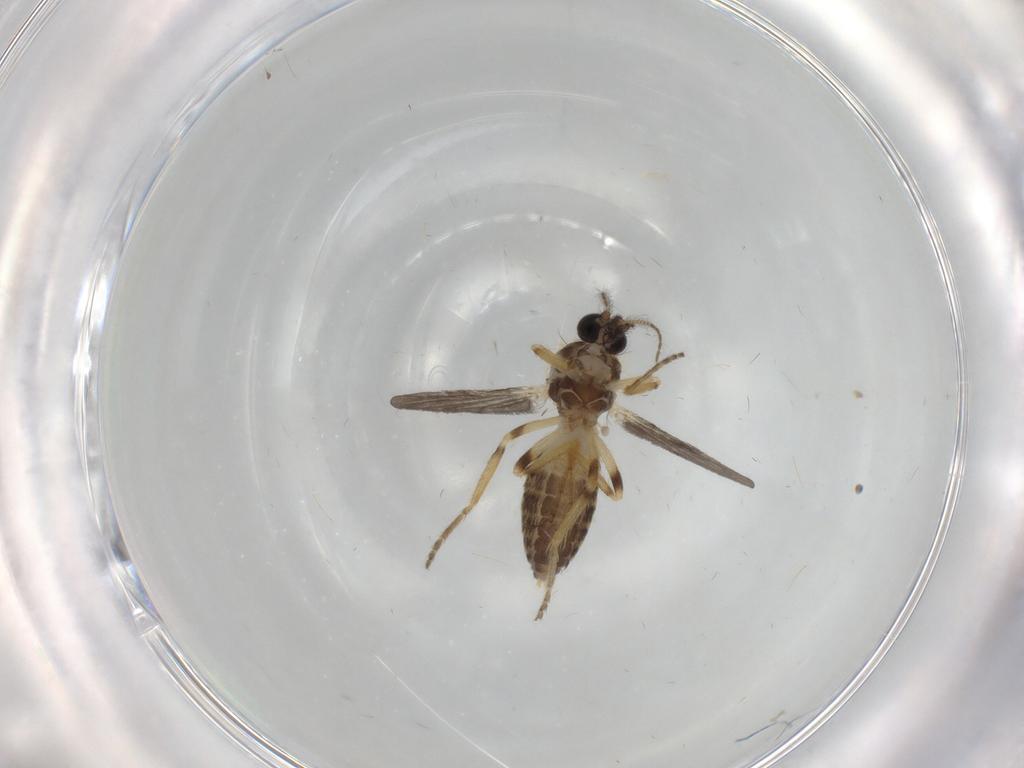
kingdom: Animalia
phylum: Arthropoda
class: Insecta
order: Diptera
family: Ceratopogonidae
